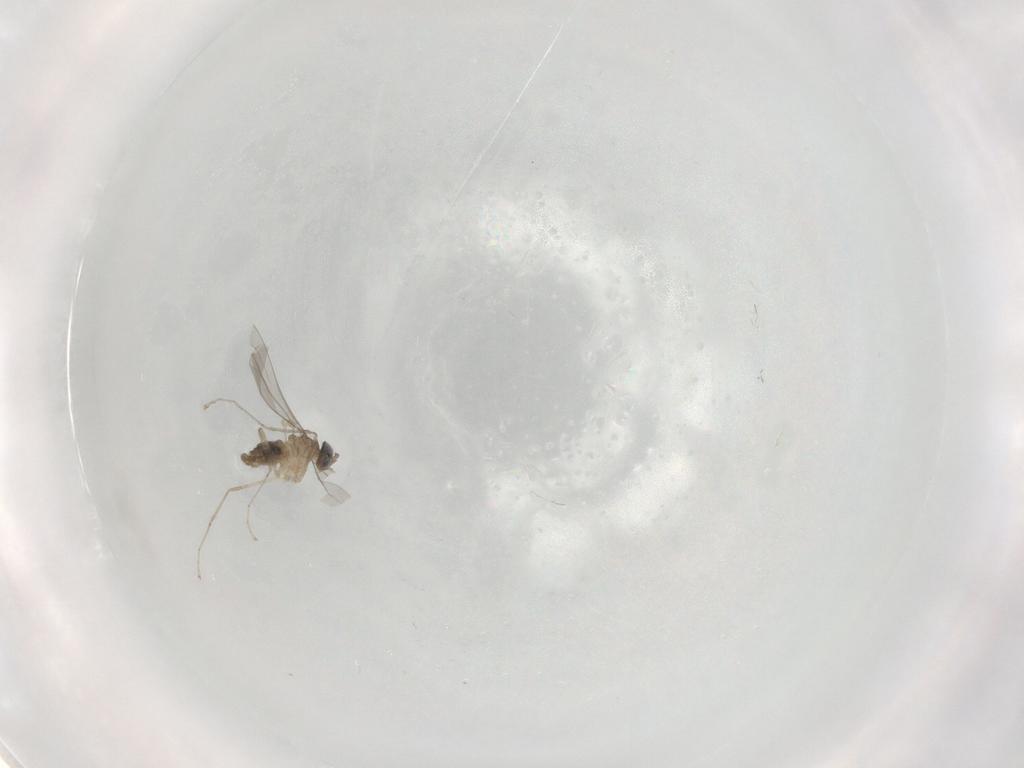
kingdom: Animalia
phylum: Arthropoda
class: Insecta
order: Diptera
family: Cecidomyiidae
